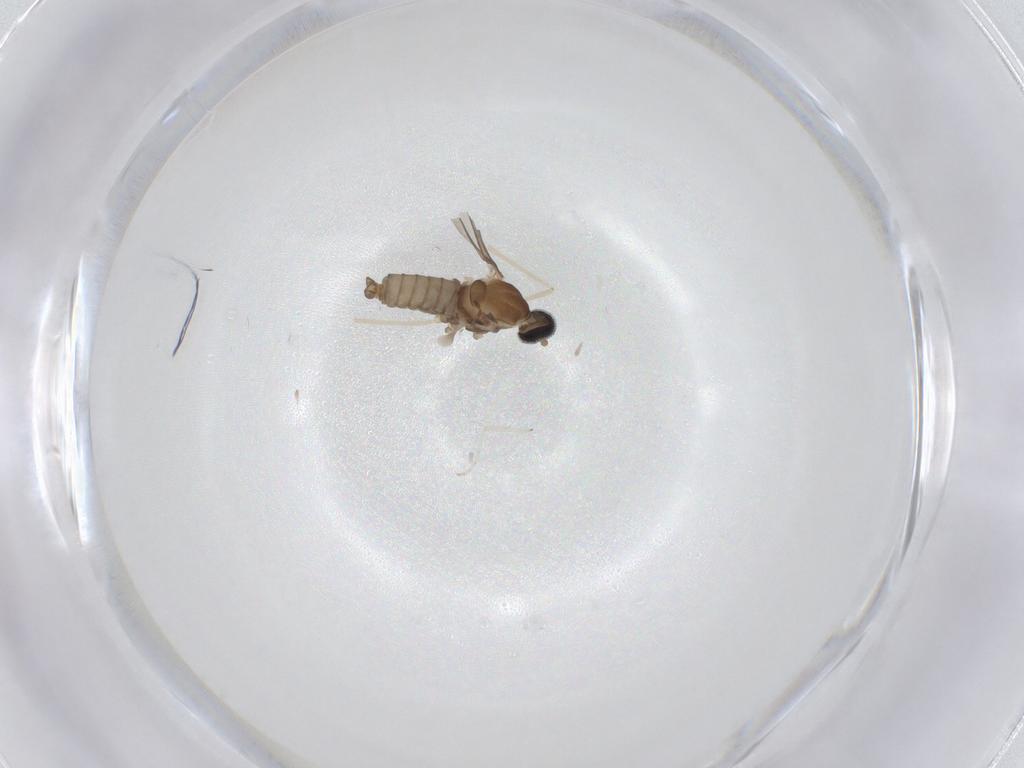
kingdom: Animalia
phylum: Arthropoda
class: Insecta
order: Diptera
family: Cecidomyiidae
